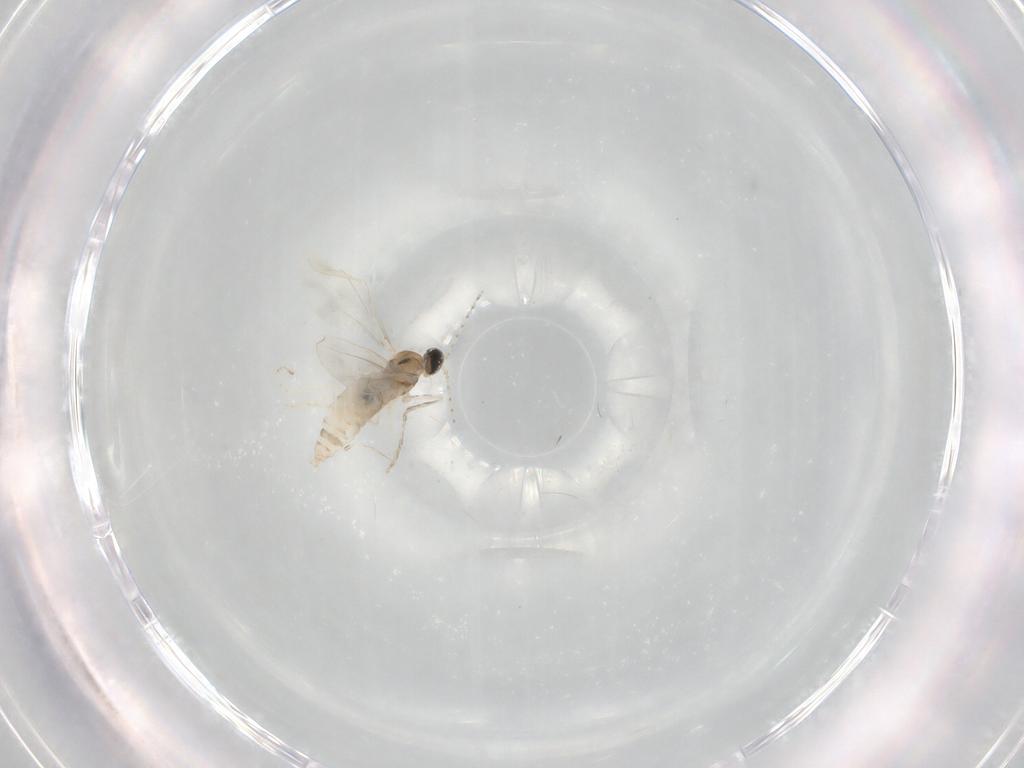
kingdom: Animalia
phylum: Arthropoda
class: Insecta
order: Diptera
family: Cecidomyiidae
